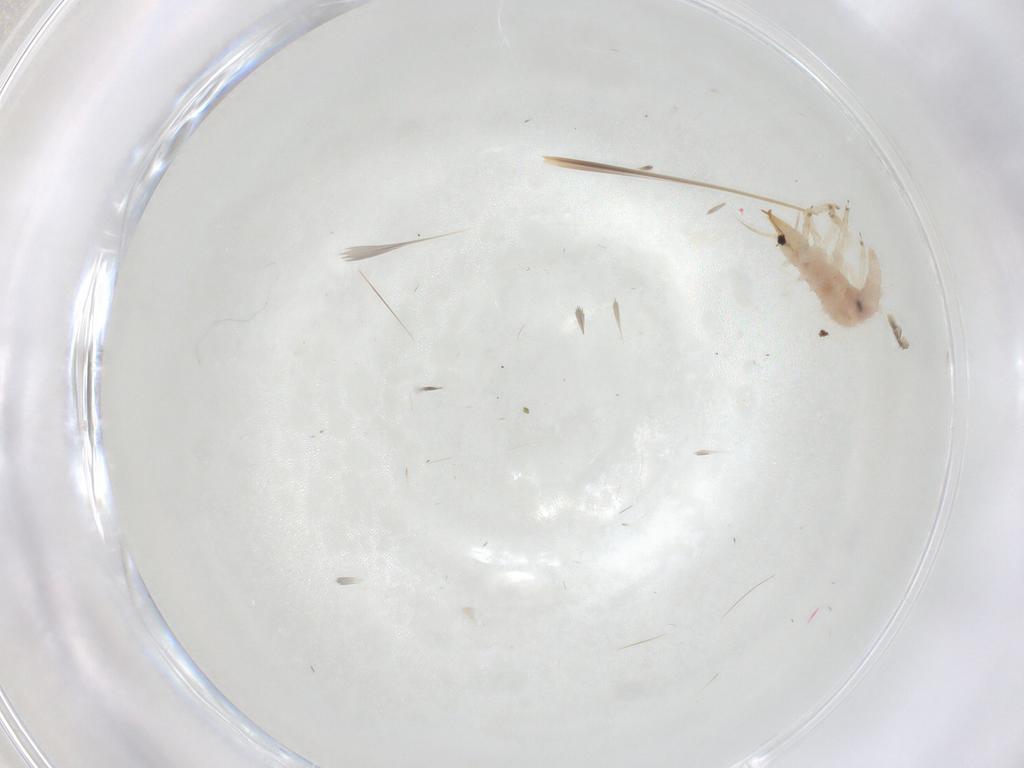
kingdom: Animalia
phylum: Arthropoda
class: Insecta
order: Neuroptera
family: Chrysopidae
